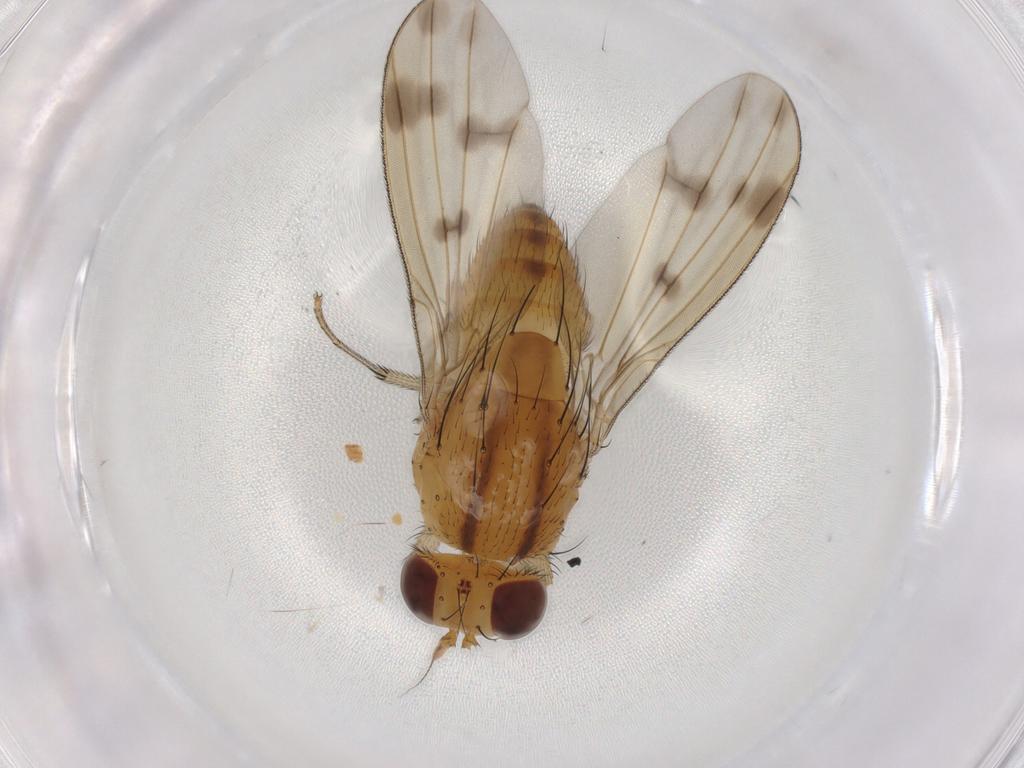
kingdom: Animalia
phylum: Arthropoda
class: Insecta
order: Diptera
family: Lauxaniidae
